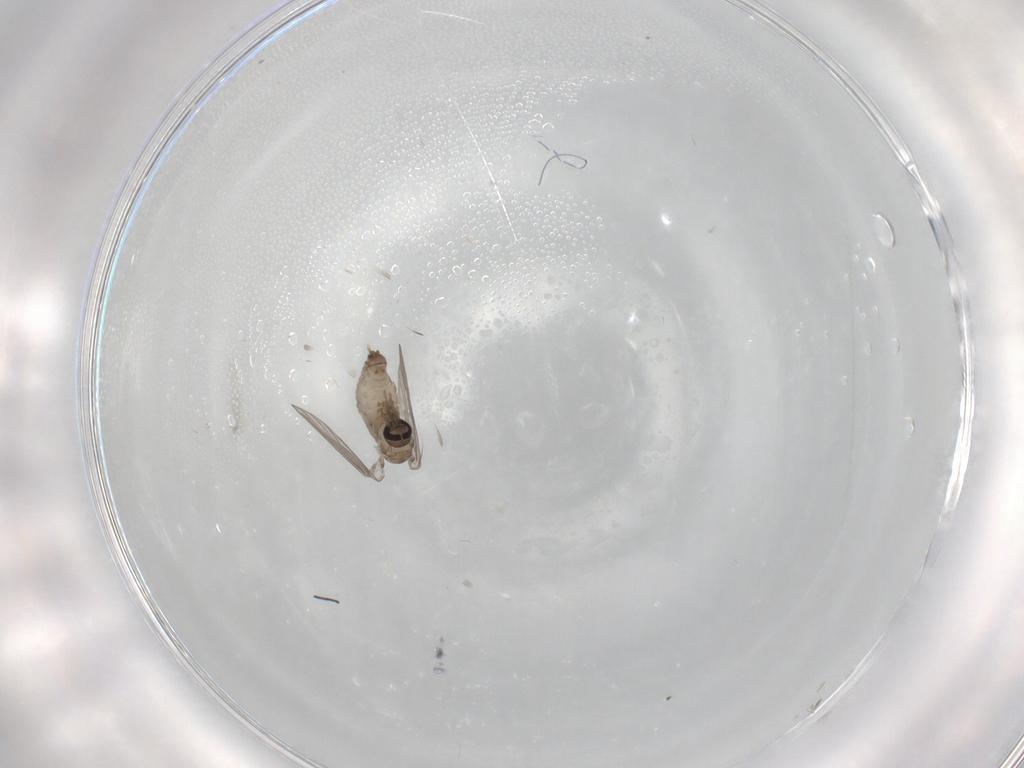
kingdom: Animalia
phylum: Arthropoda
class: Insecta
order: Diptera
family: Psychodidae
